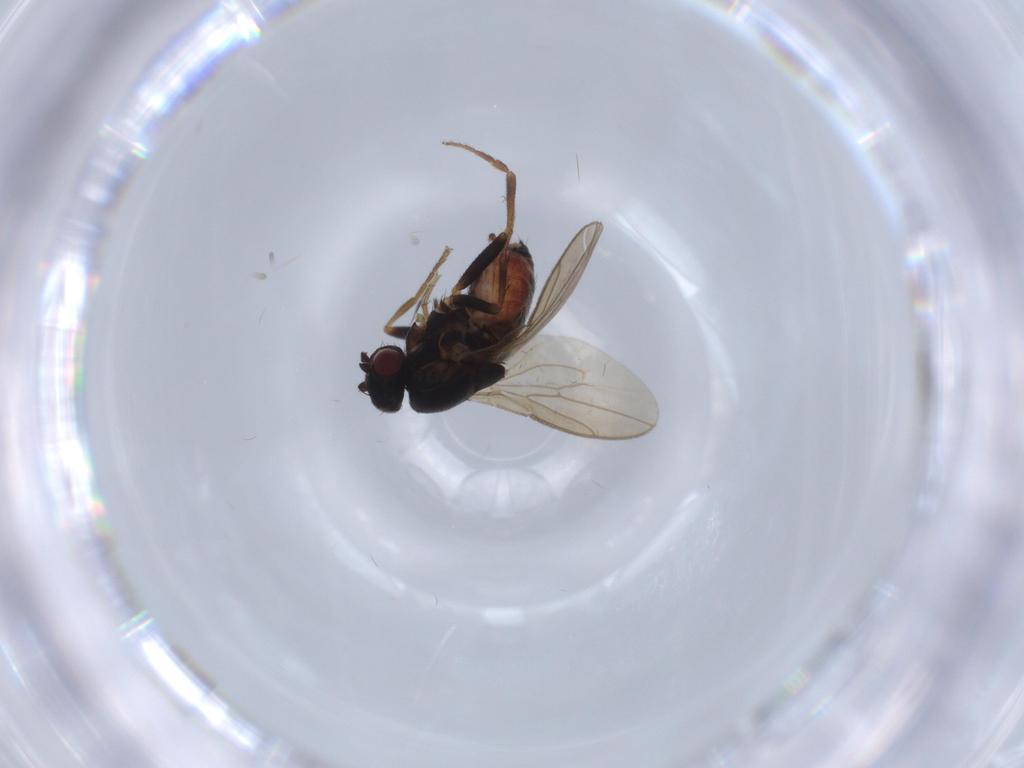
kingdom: Animalia
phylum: Arthropoda
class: Insecta
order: Diptera
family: Sphaeroceridae
